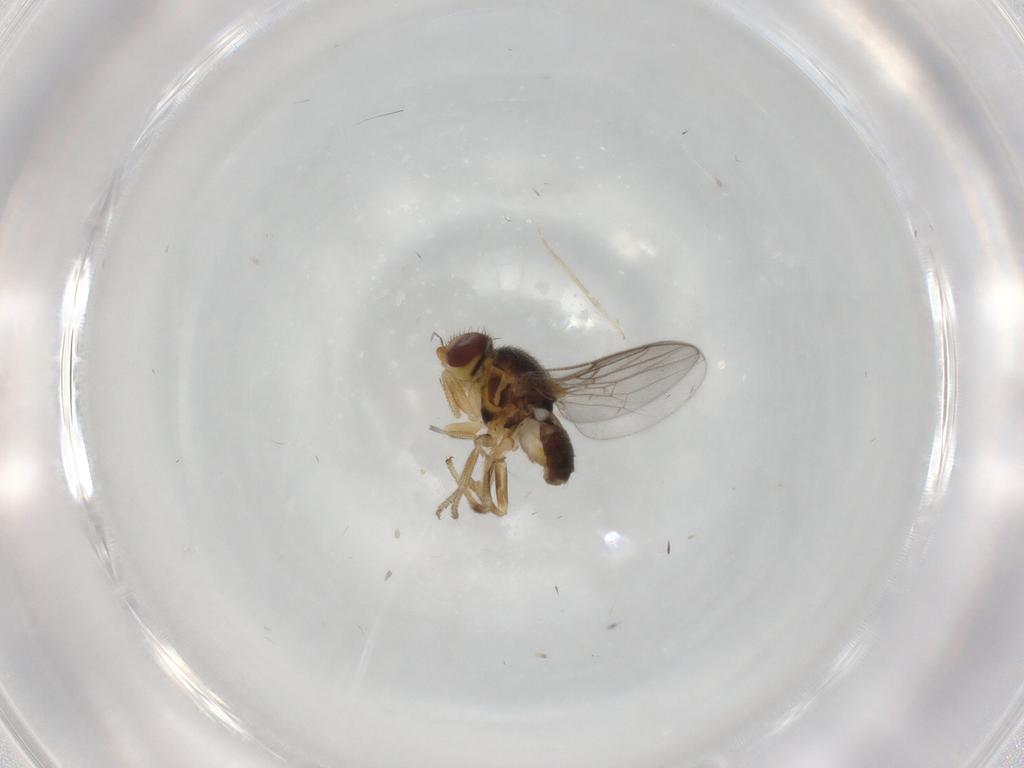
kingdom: Animalia
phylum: Arthropoda
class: Insecta
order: Diptera
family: Chloropidae
